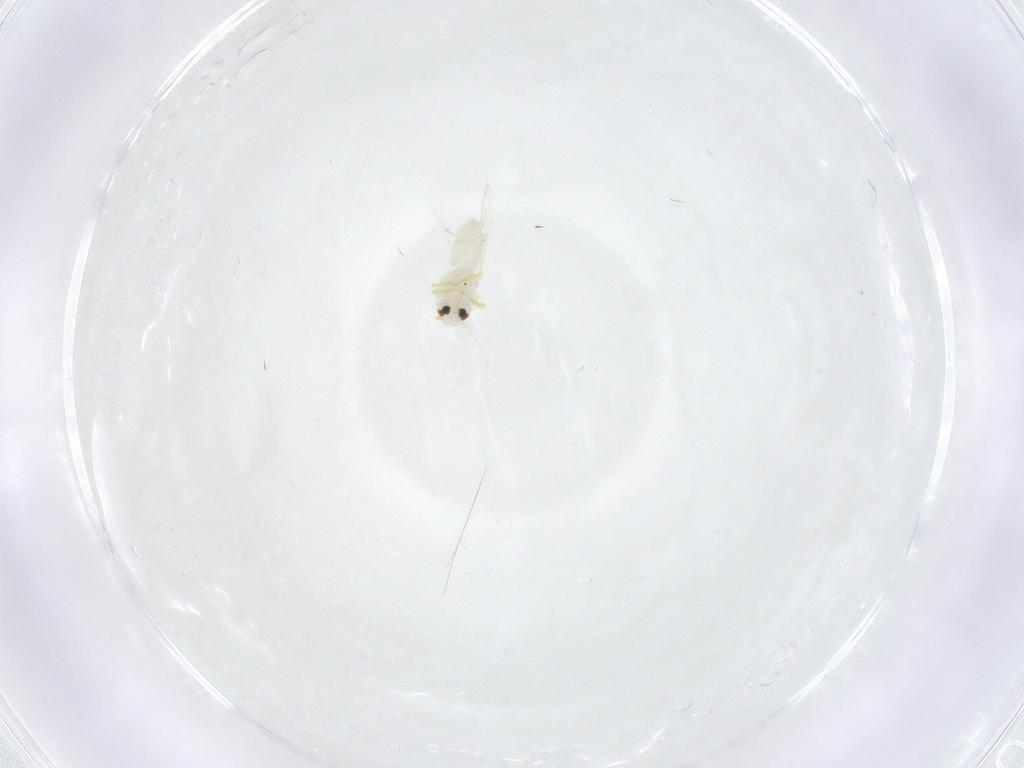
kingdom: Animalia
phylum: Arthropoda
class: Insecta
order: Hemiptera
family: Aleyrodidae
